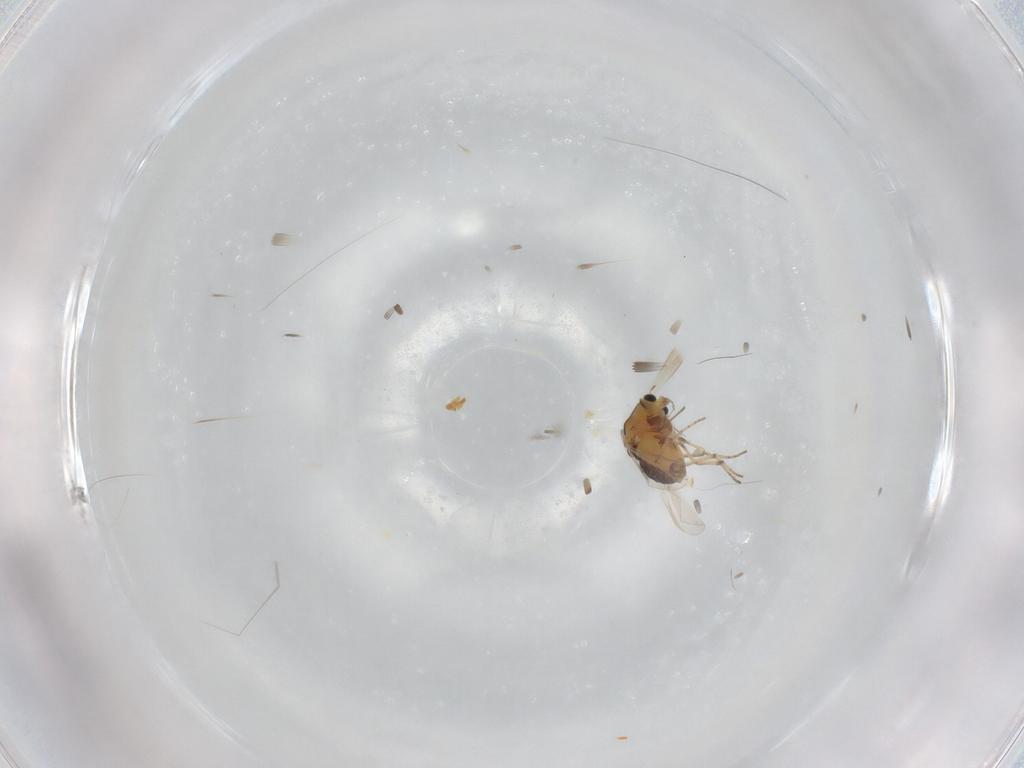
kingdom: Animalia
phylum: Arthropoda
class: Insecta
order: Diptera
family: Chironomidae
